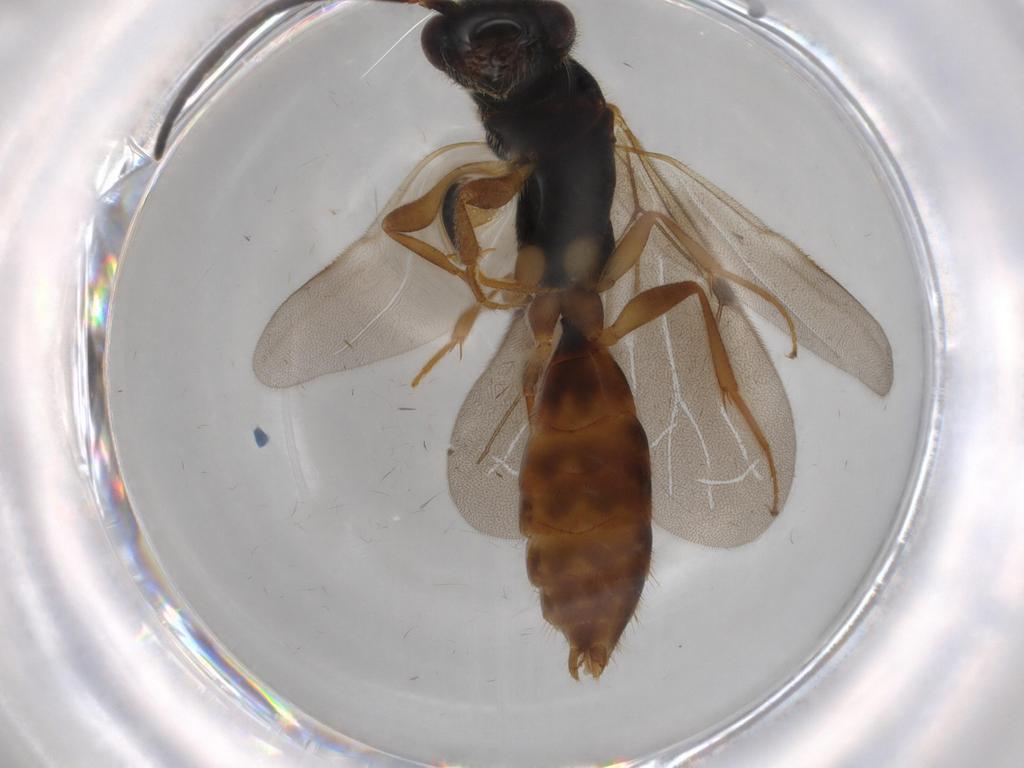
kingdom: Animalia
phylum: Arthropoda
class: Insecta
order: Hymenoptera
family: Bethylidae
